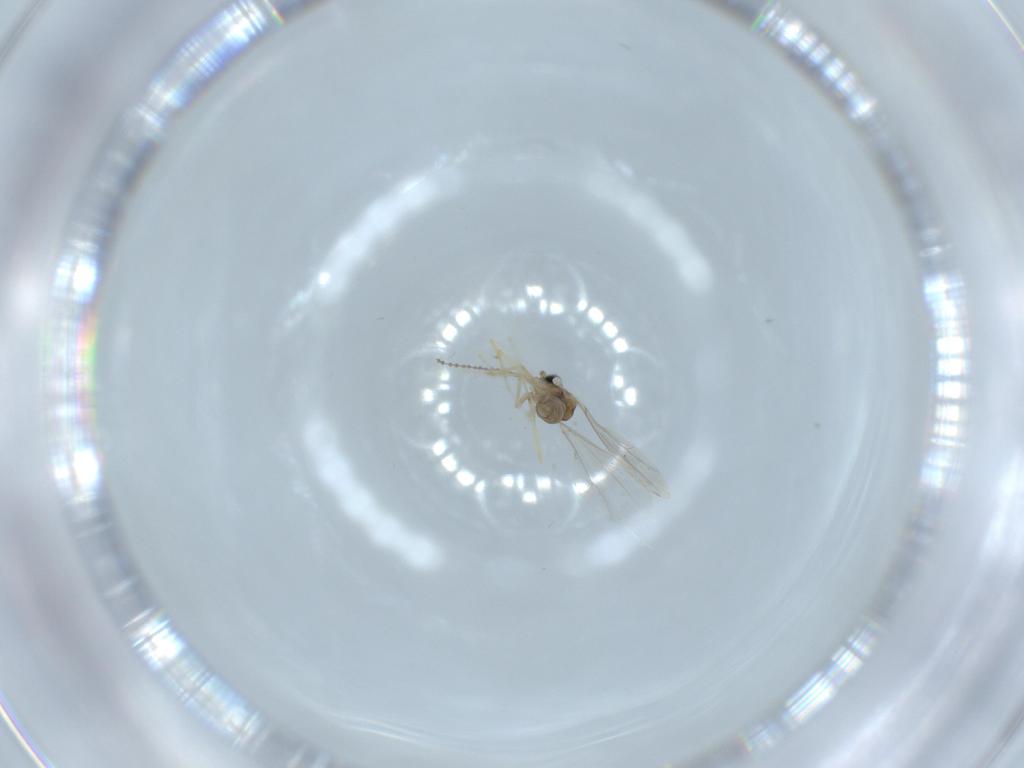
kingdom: Animalia
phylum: Arthropoda
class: Insecta
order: Diptera
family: Cecidomyiidae
